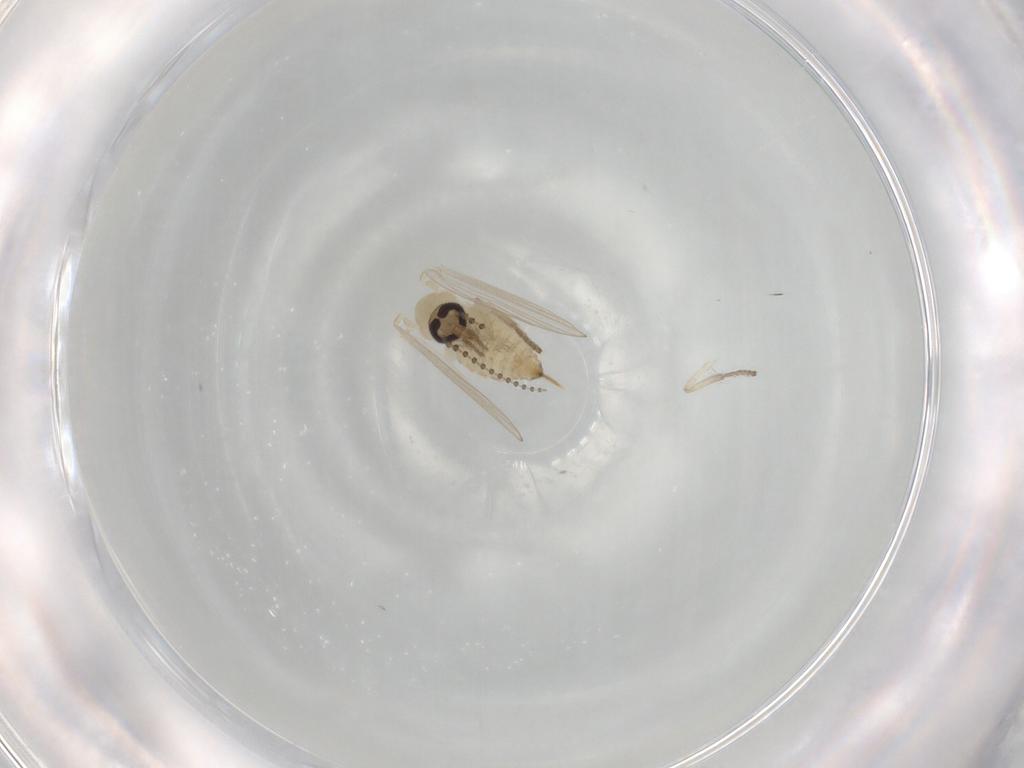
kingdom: Animalia
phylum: Arthropoda
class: Insecta
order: Diptera
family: Psychodidae
